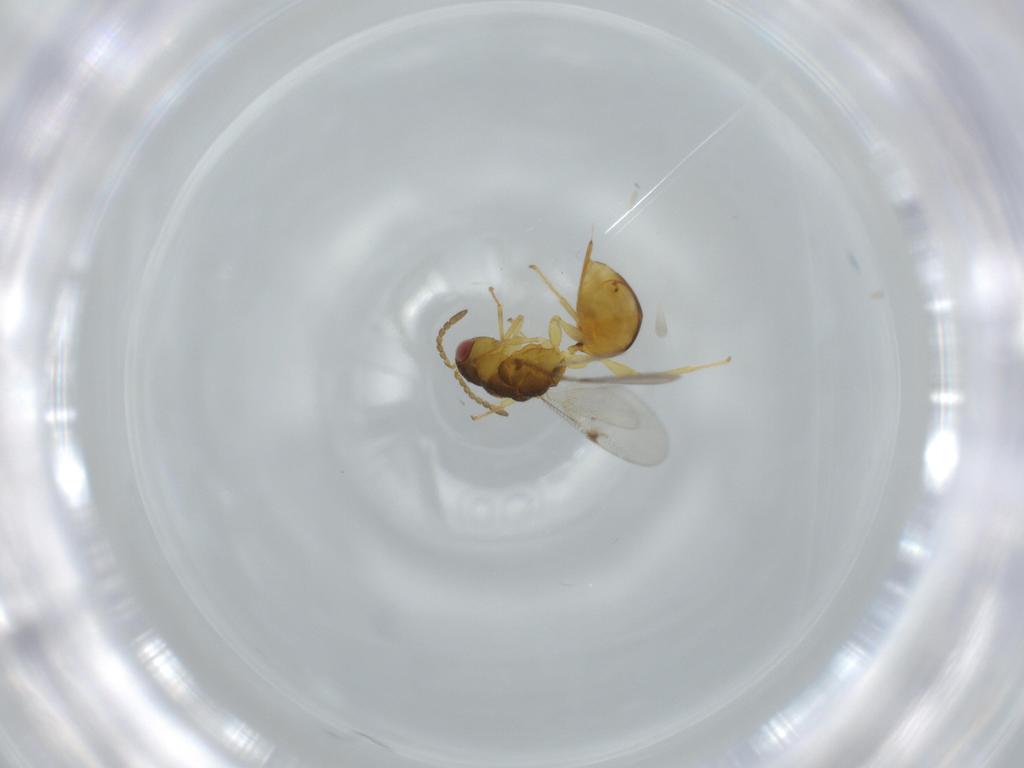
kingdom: Animalia
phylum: Arthropoda
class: Insecta
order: Hymenoptera
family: Eurytomidae
